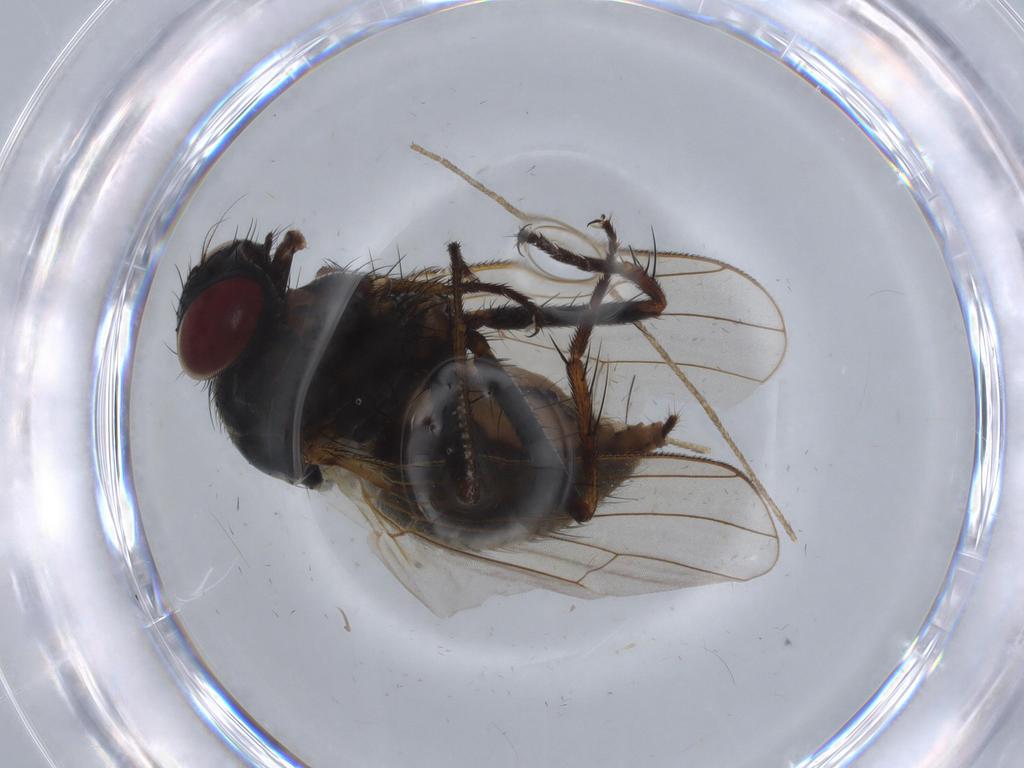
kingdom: Animalia
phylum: Arthropoda
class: Insecta
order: Diptera
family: Muscidae
